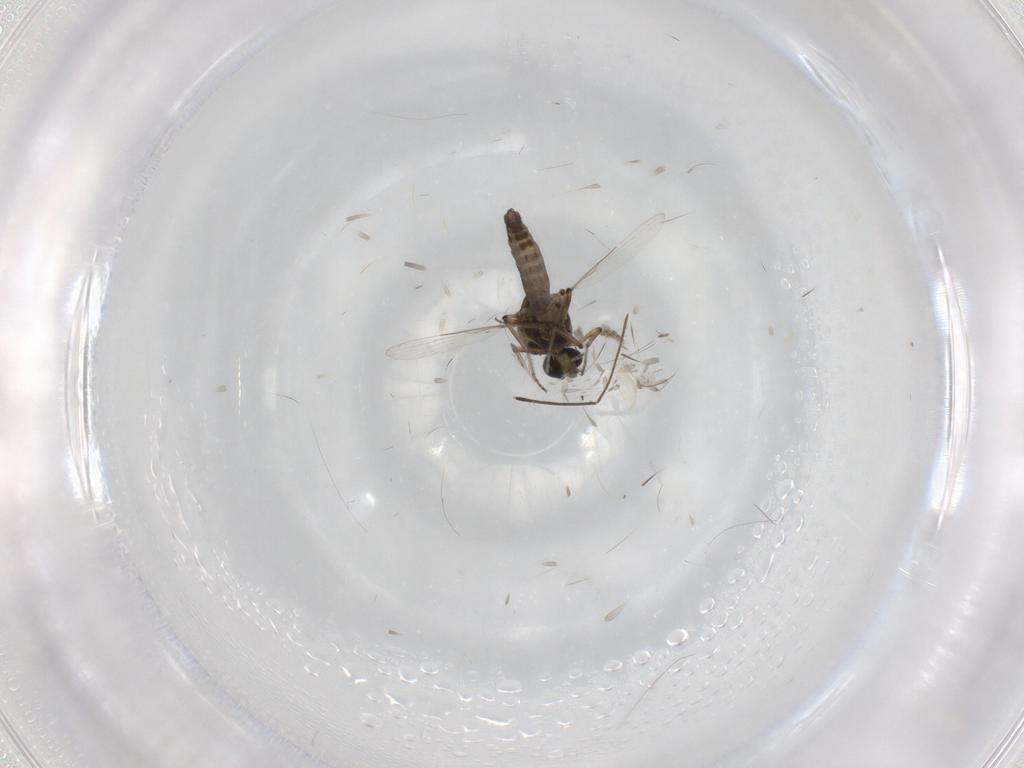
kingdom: Animalia
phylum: Arthropoda
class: Insecta
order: Diptera
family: Ceratopogonidae
